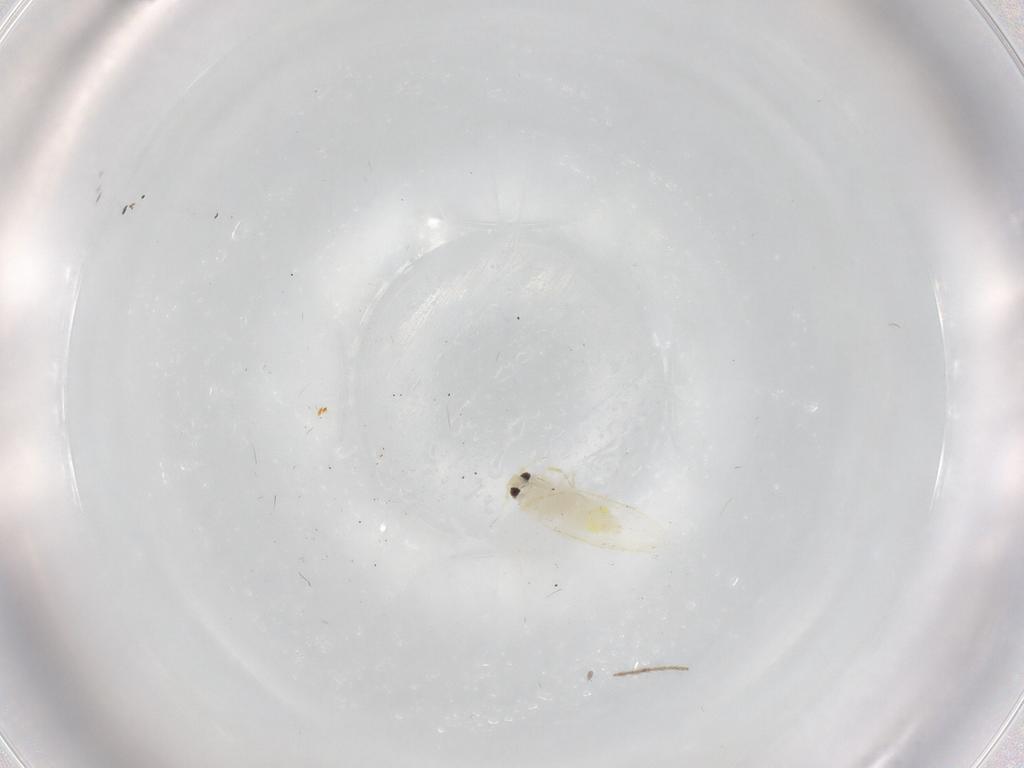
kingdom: Animalia
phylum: Arthropoda
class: Insecta
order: Hemiptera
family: Aleyrodidae
